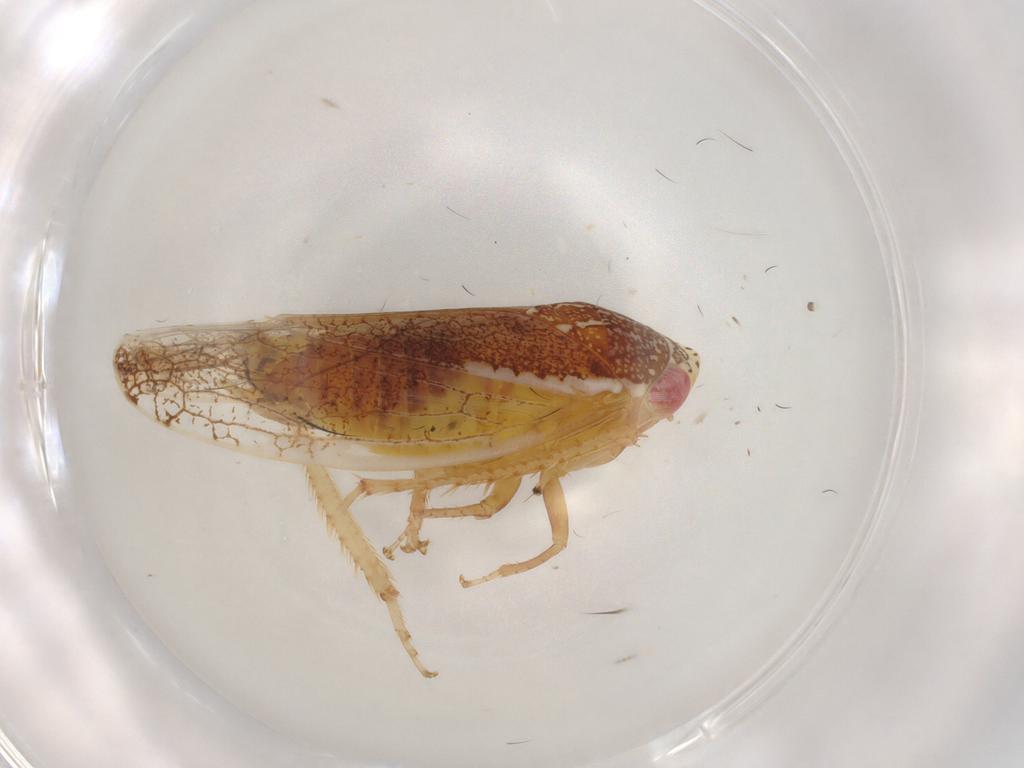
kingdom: Animalia
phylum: Arthropoda
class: Insecta
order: Hemiptera
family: Cicadellidae
